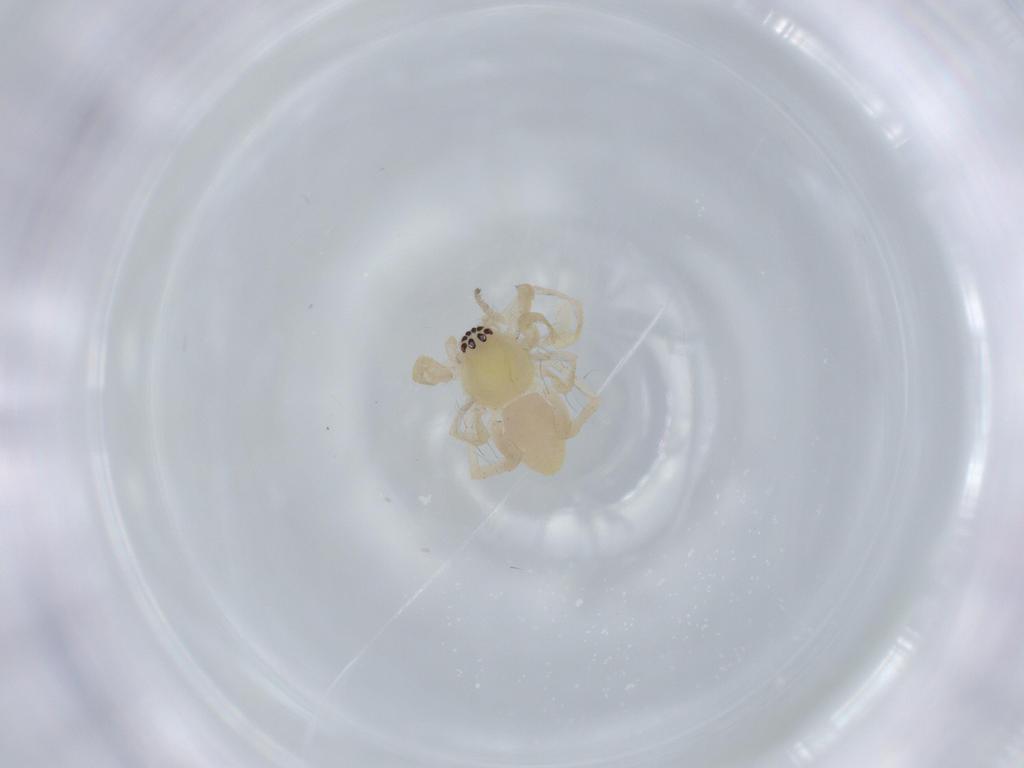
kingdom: Animalia
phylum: Arthropoda
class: Arachnida
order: Araneae
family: Anyphaenidae
